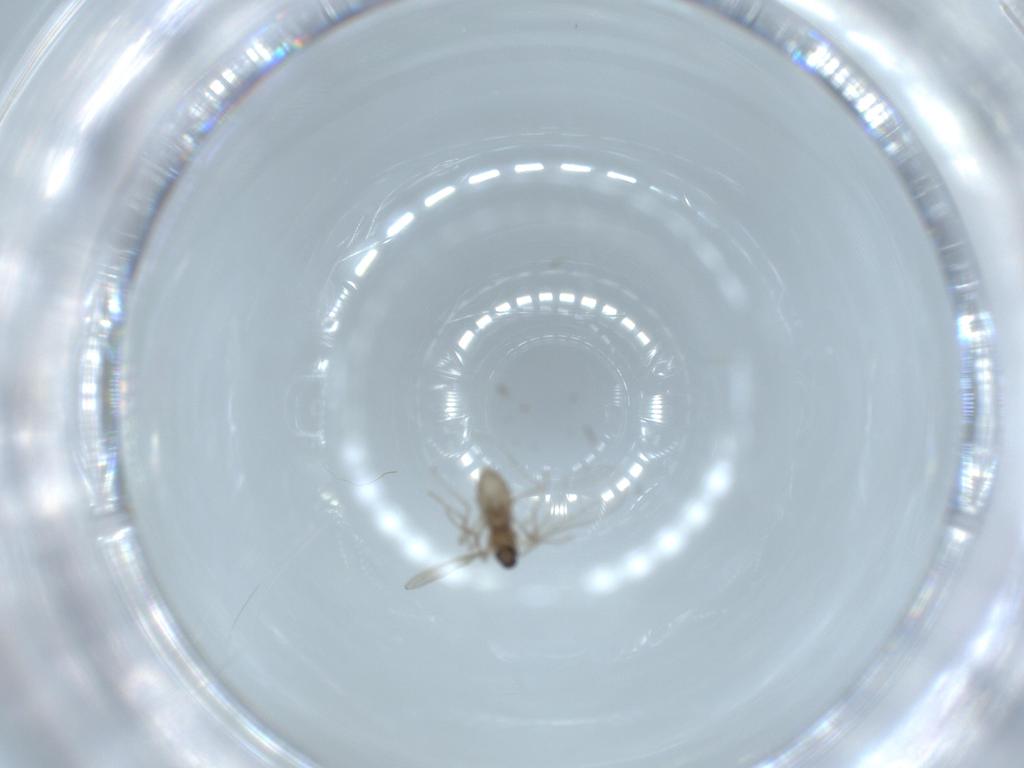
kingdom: Animalia
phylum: Arthropoda
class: Insecta
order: Diptera
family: Cecidomyiidae
